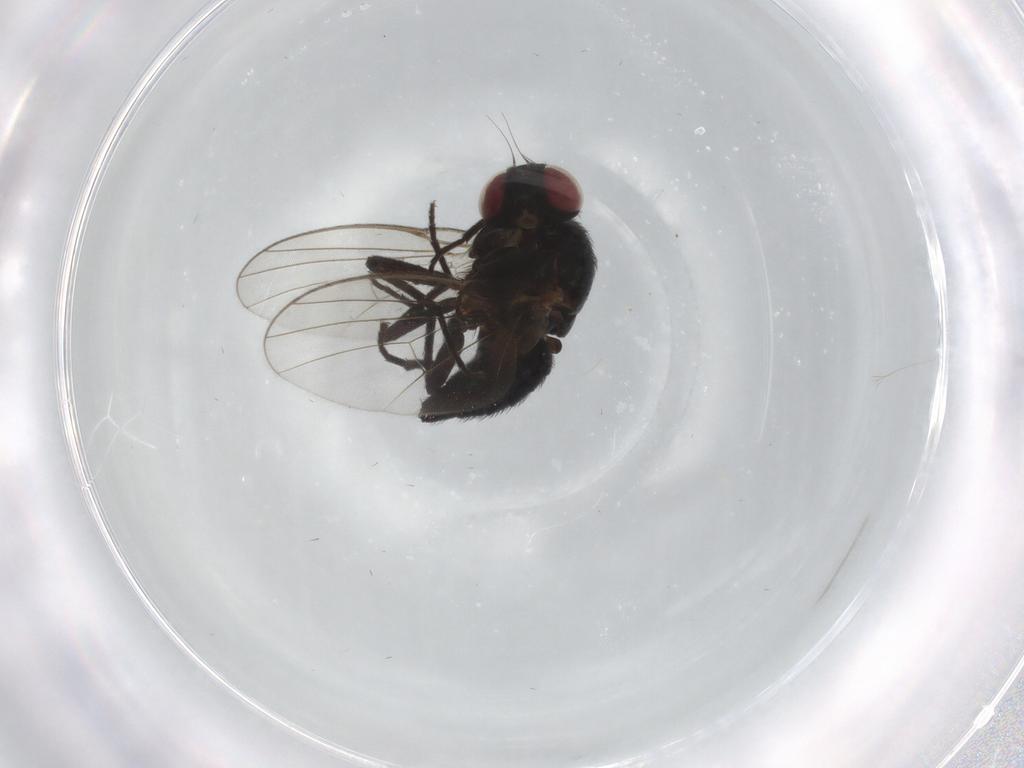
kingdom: Animalia
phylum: Arthropoda
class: Insecta
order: Diptera
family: Agromyzidae
